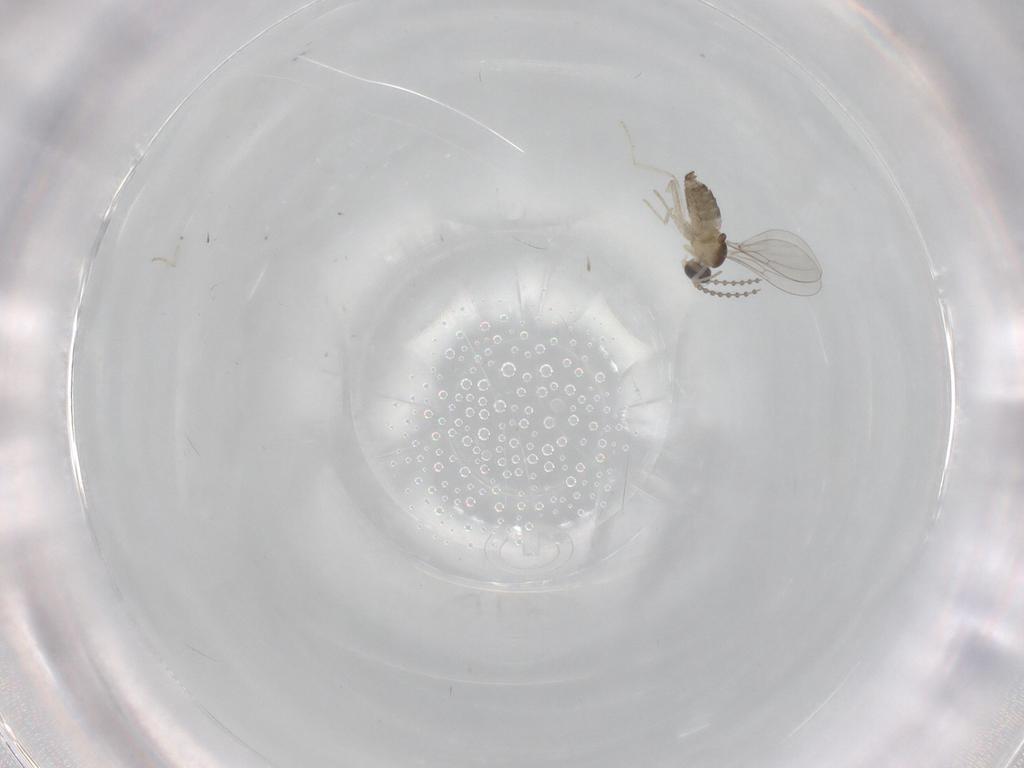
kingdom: Animalia
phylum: Arthropoda
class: Insecta
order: Diptera
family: Cecidomyiidae
